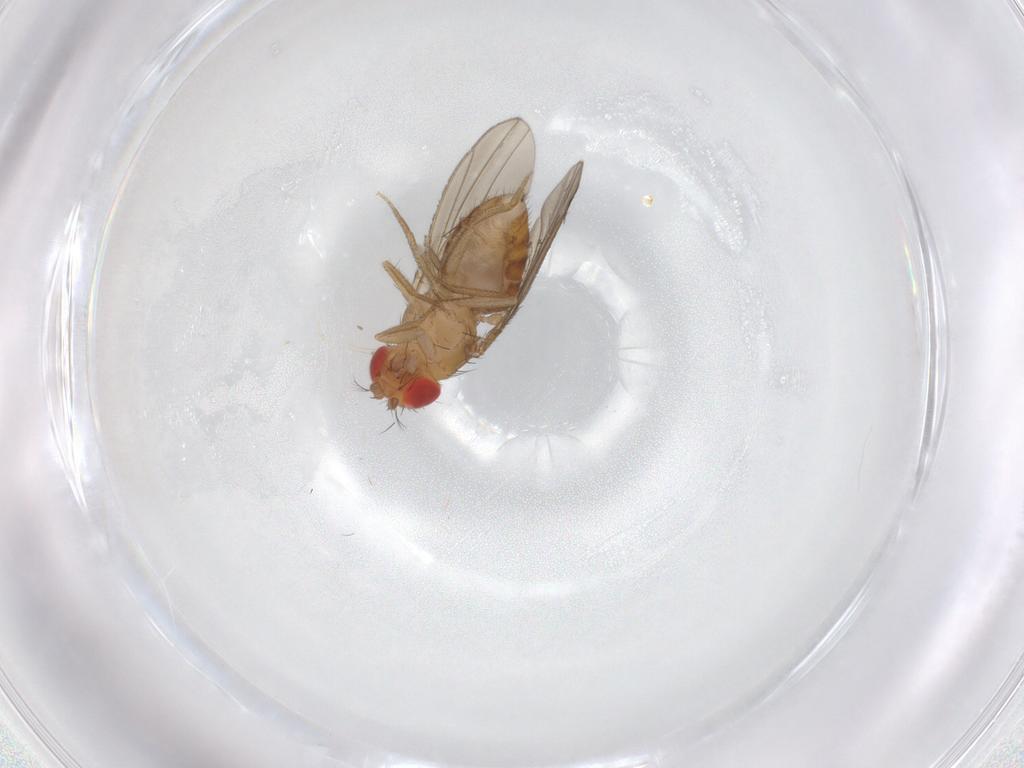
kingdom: Animalia
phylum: Arthropoda
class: Insecta
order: Diptera
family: Drosophilidae
